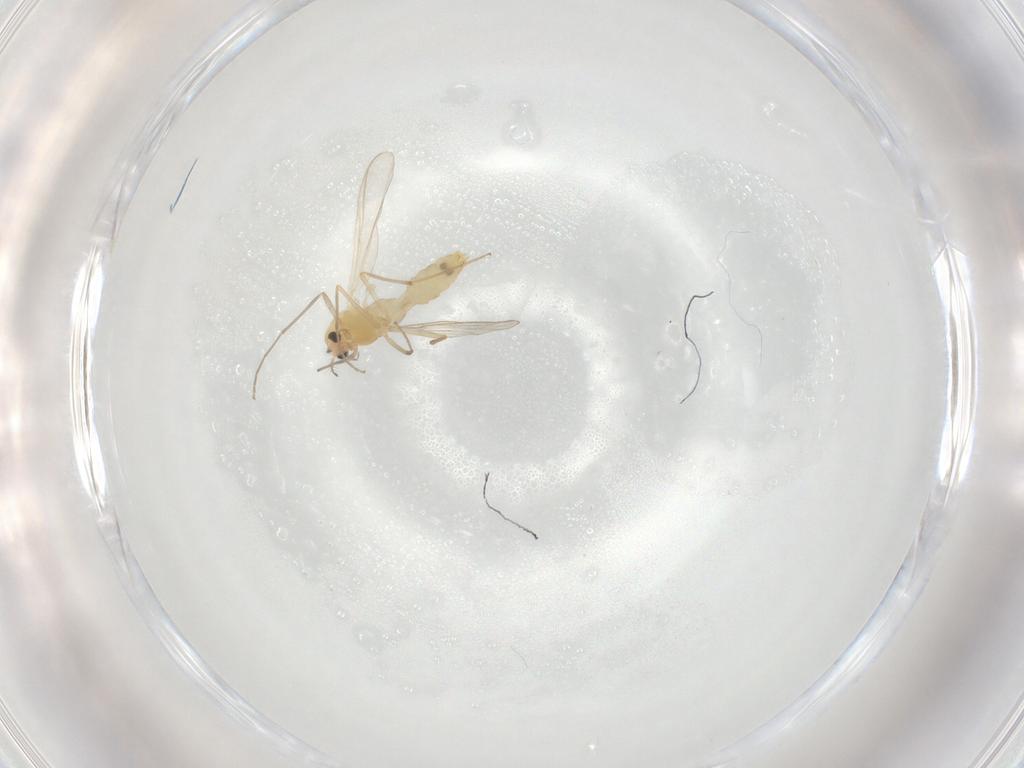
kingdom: Animalia
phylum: Arthropoda
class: Insecta
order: Diptera
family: Chironomidae
